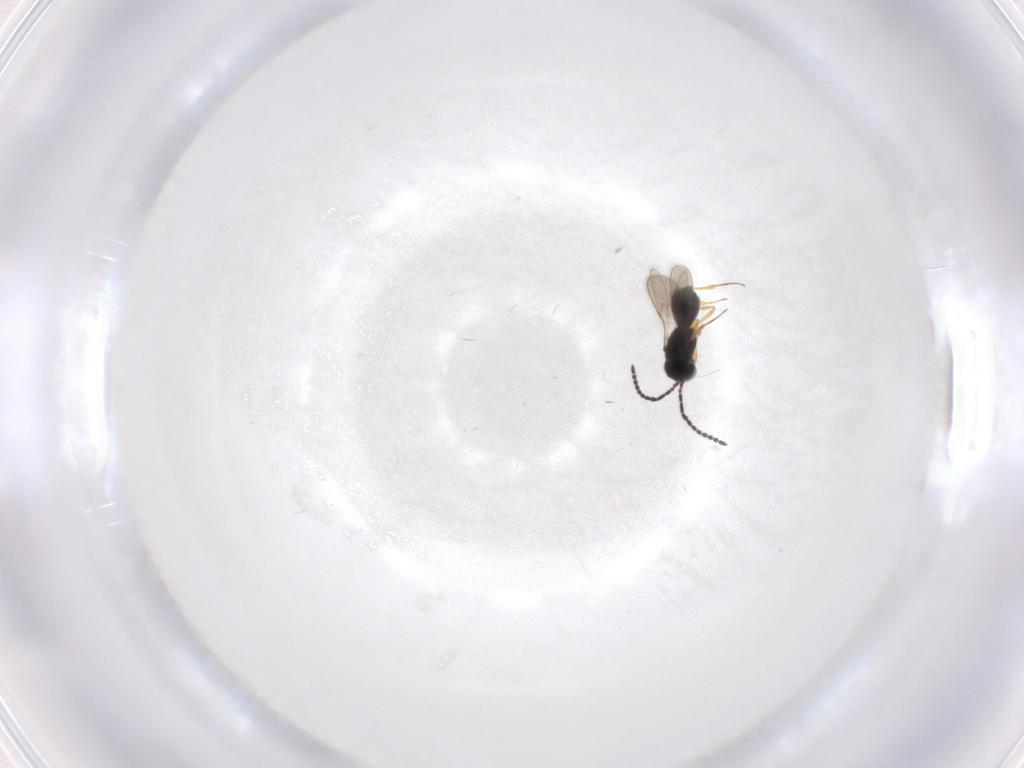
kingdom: Animalia
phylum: Arthropoda
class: Insecta
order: Hymenoptera
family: Scelionidae
